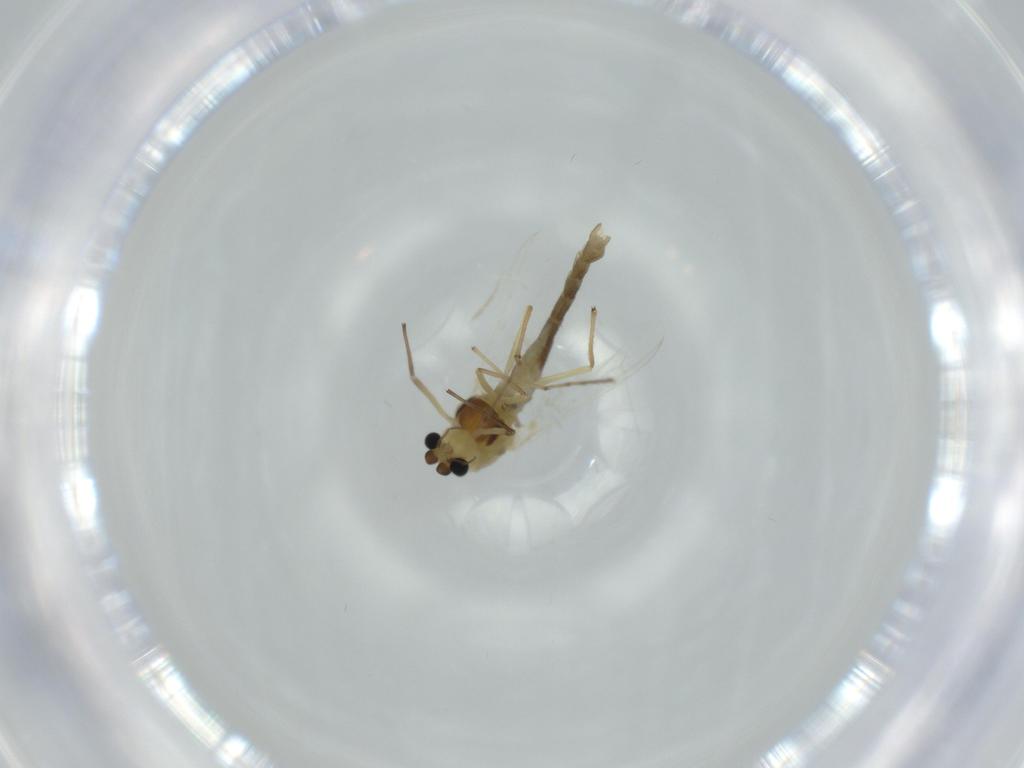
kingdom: Animalia
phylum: Arthropoda
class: Insecta
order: Diptera
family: Chironomidae
